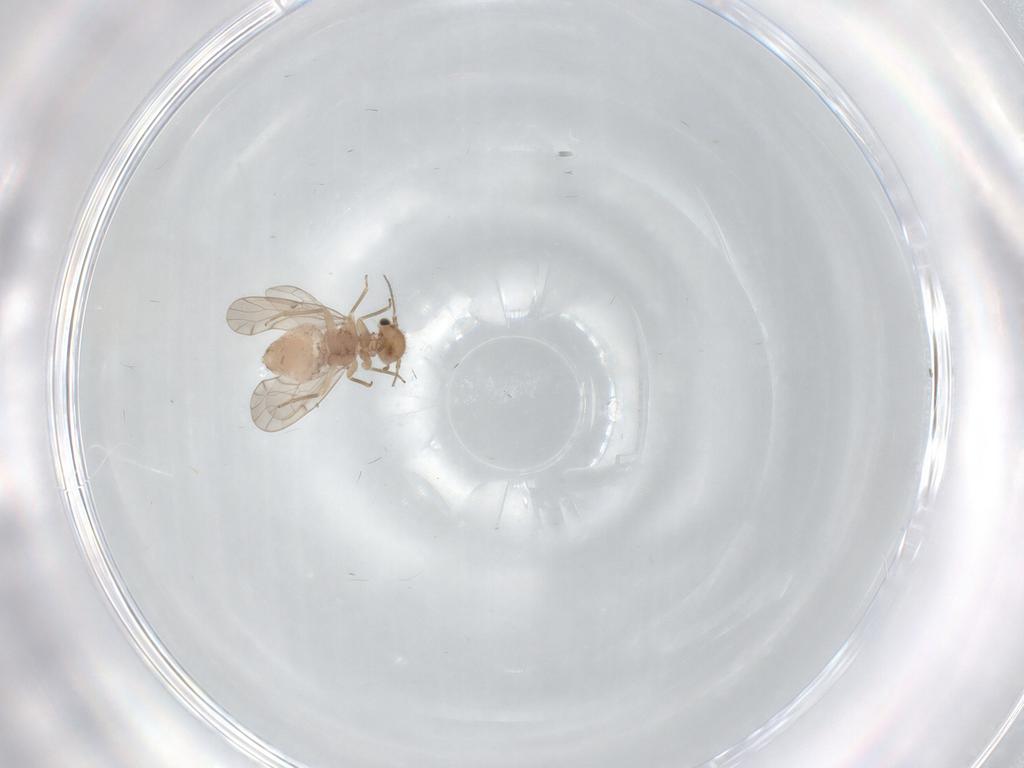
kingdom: Animalia
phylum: Arthropoda
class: Insecta
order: Psocodea
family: Ectopsocidae
